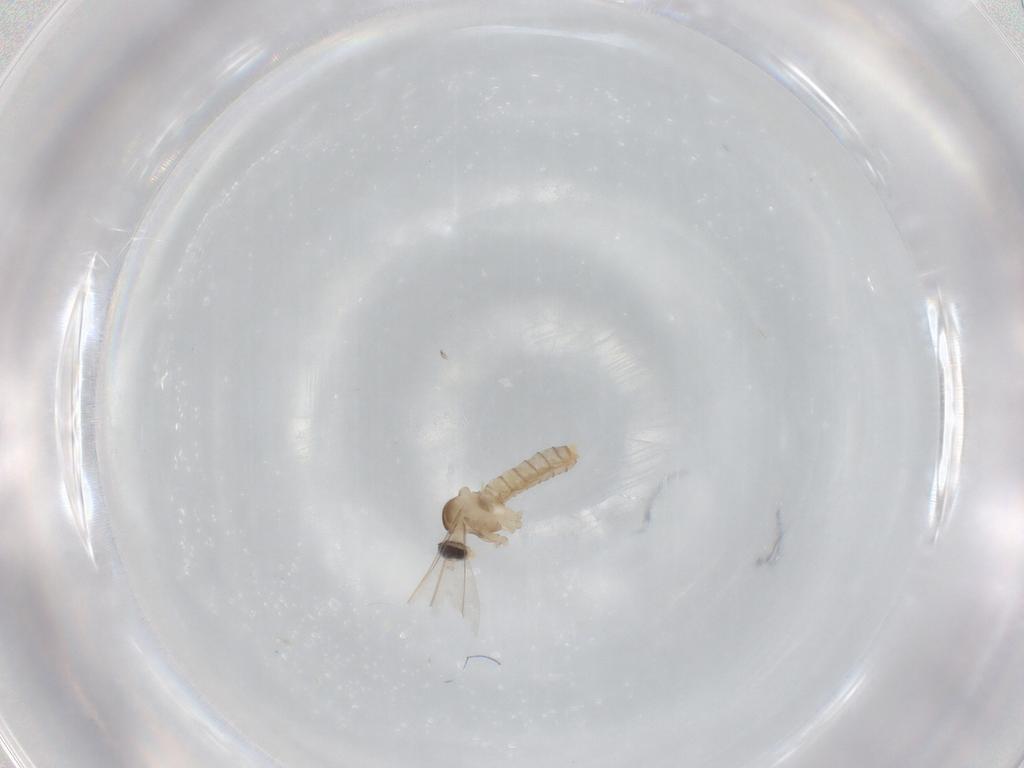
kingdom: Animalia
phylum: Arthropoda
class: Insecta
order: Diptera
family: Cecidomyiidae
